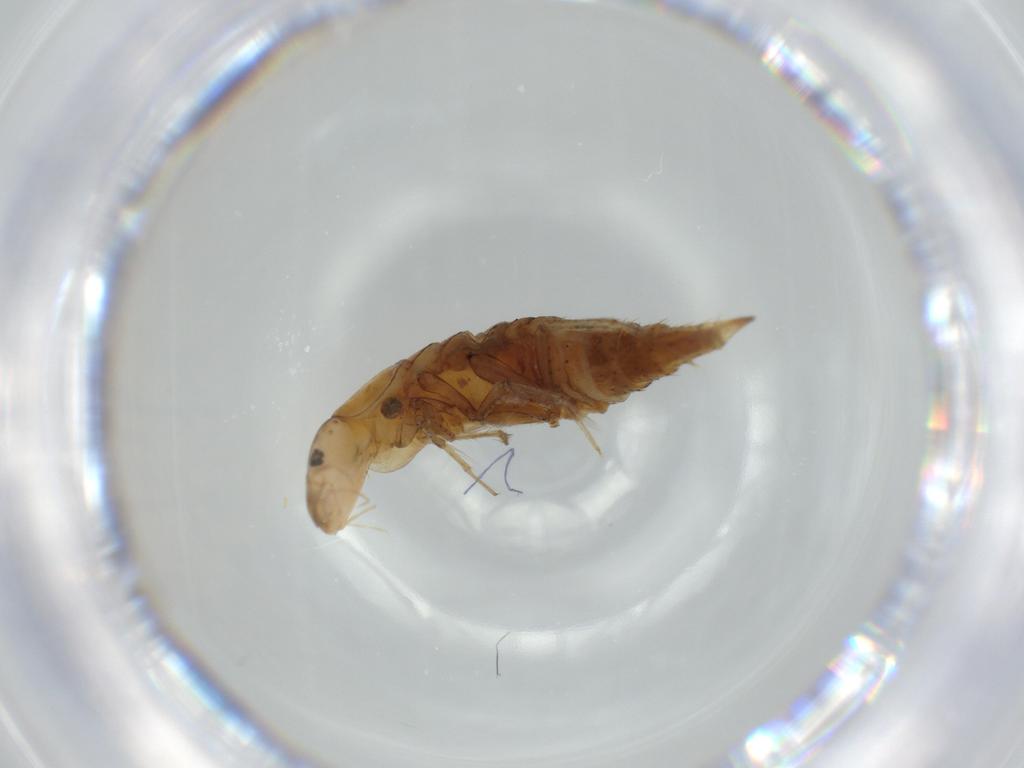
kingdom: Animalia
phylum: Arthropoda
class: Insecta
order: Coleoptera
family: Dytiscidae
